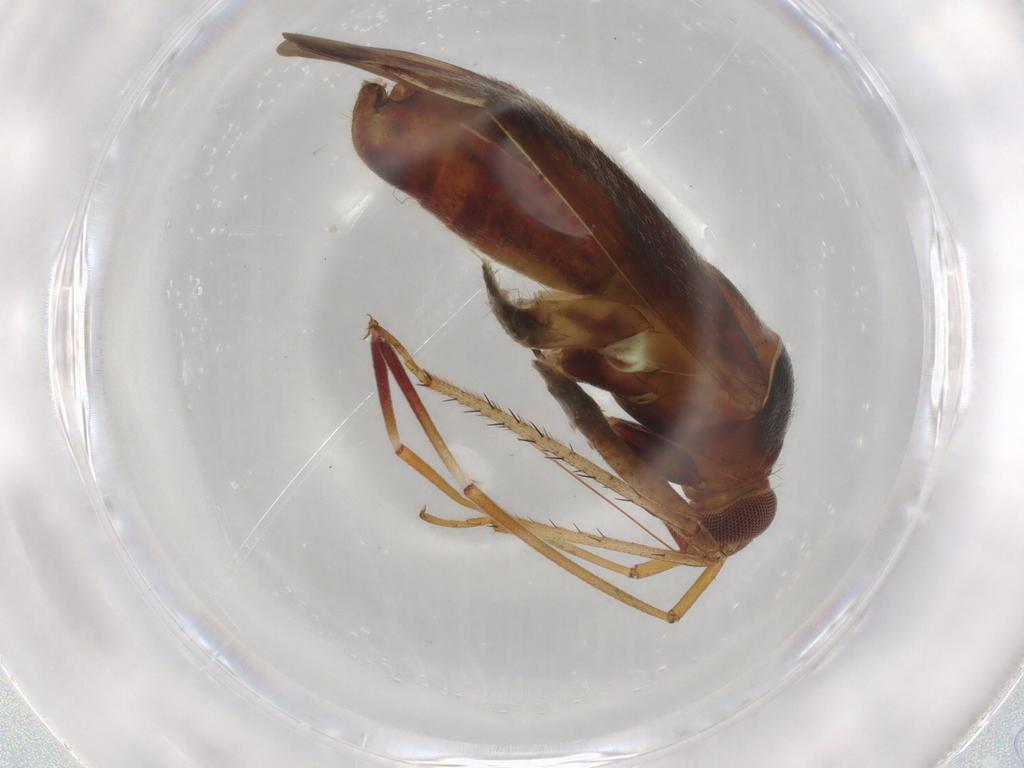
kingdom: Animalia
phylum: Arthropoda
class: Insecta
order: Hemiptera
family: Miridae
